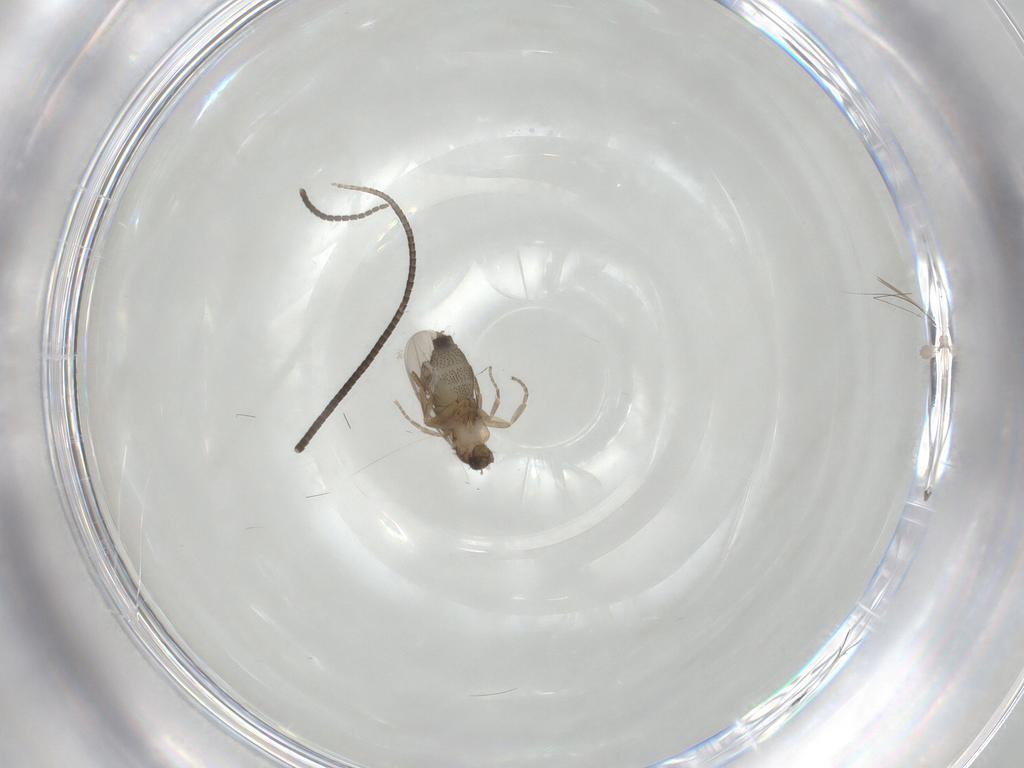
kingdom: Animalia
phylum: Arthropoda
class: Insecta
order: Diptera
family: Phoridae
